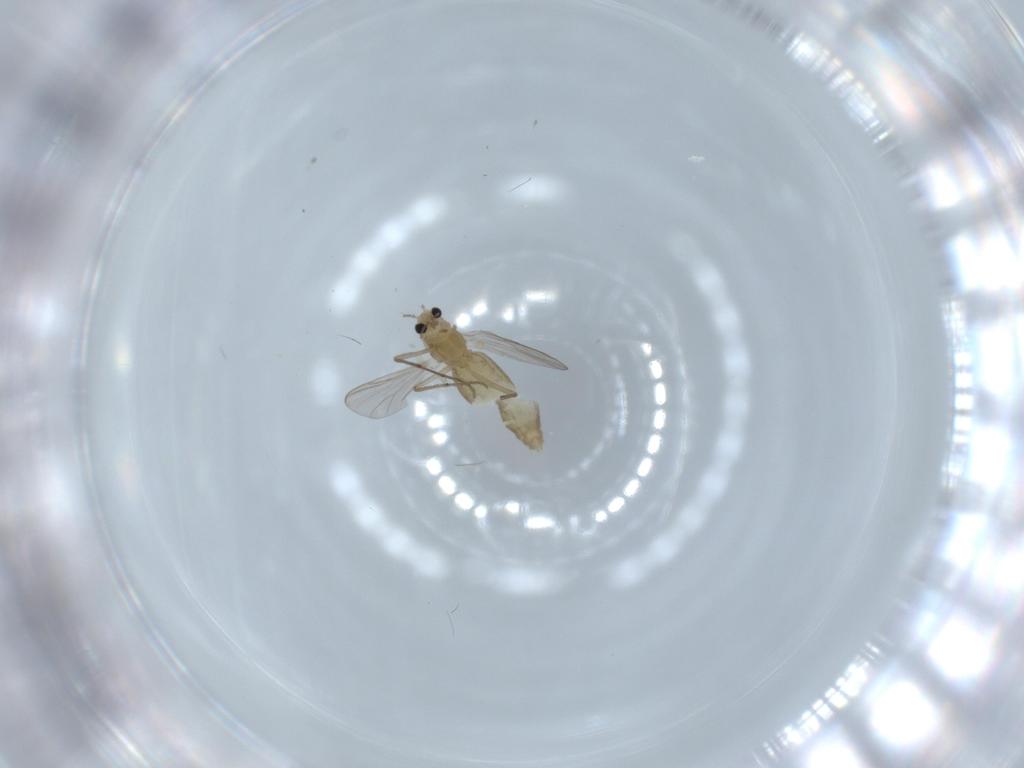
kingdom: Animalia
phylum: Arthropoda
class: Insecta
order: Diptera
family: Chironomidae
